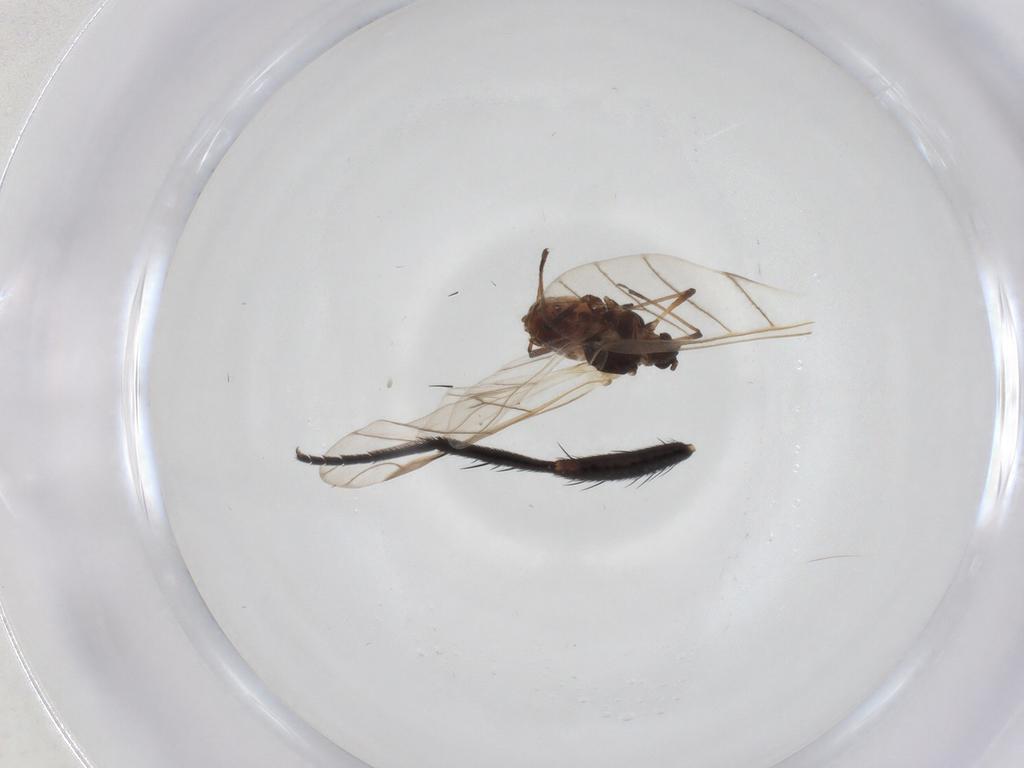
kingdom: Animalia
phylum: Arthropoda
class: Insecta
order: Hemiptera
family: Aphididae
